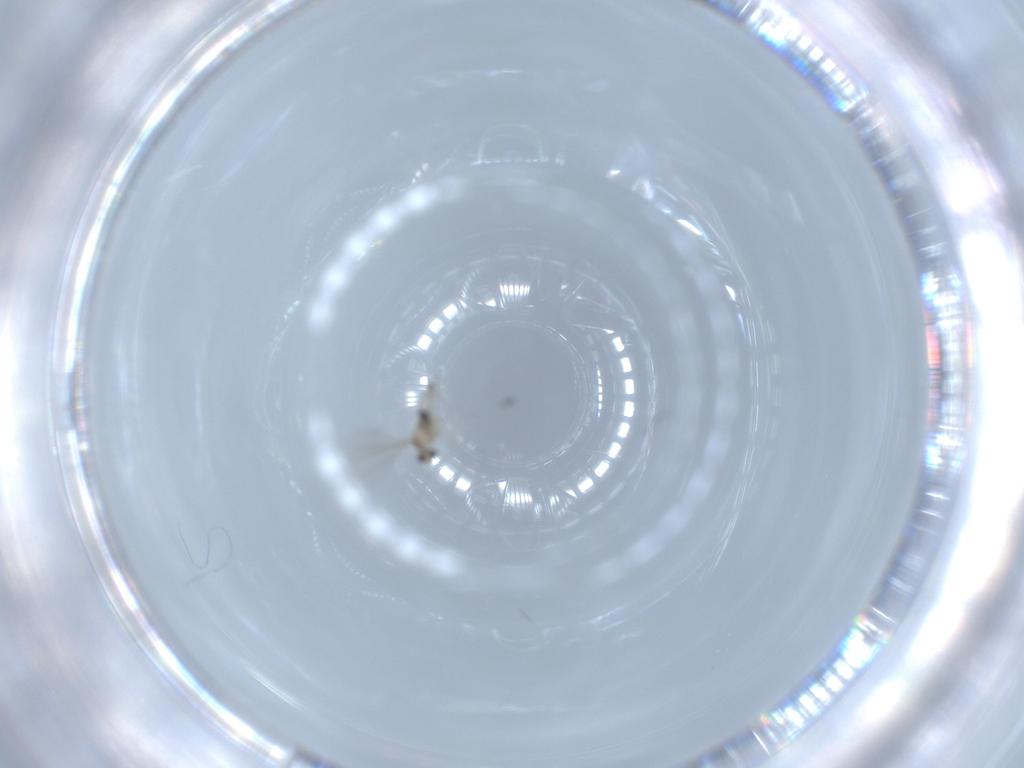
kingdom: Animalia
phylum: Arthropoda
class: Insecta
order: Diptera
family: Cecidomyiidae
